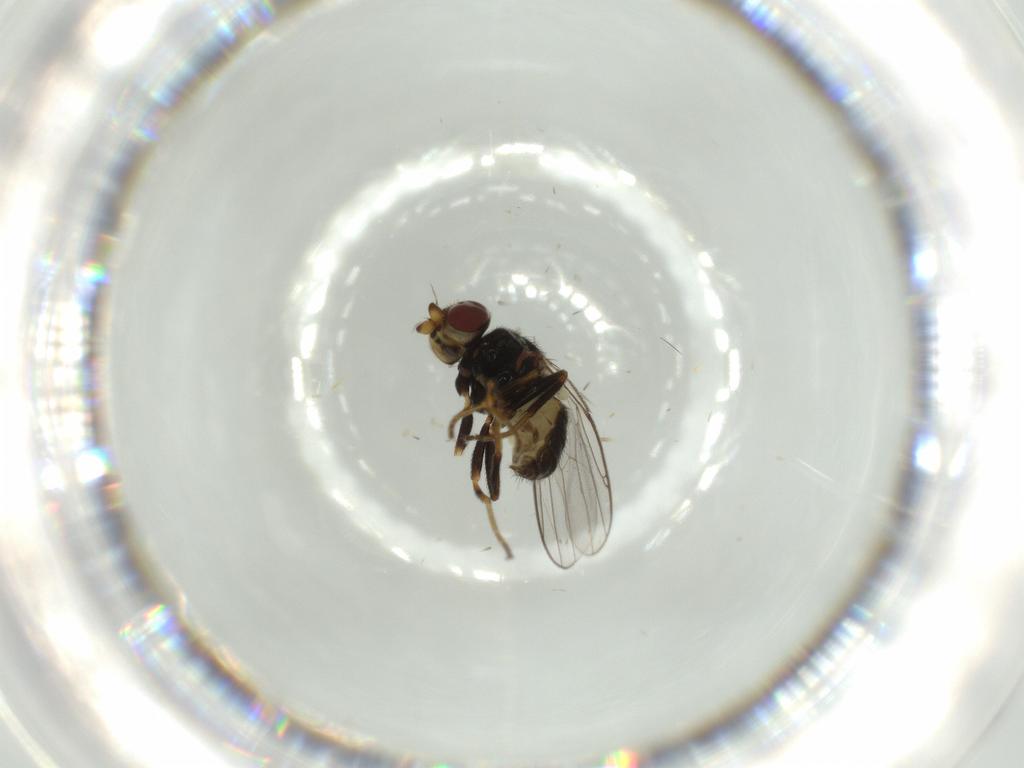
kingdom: Animalia
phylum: Arthropoda
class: Insecta
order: Diptera
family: Chloropidae
